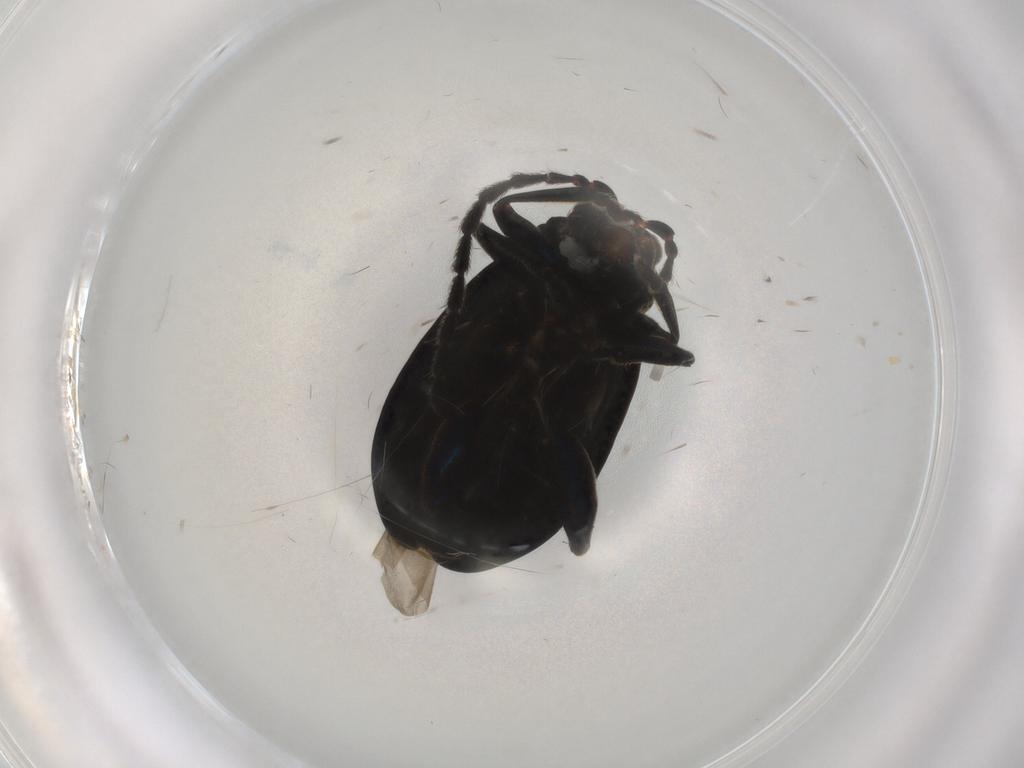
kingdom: Animalia
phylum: Arthropoda
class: Insecta
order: Coleoptera
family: Chrysomelidae
